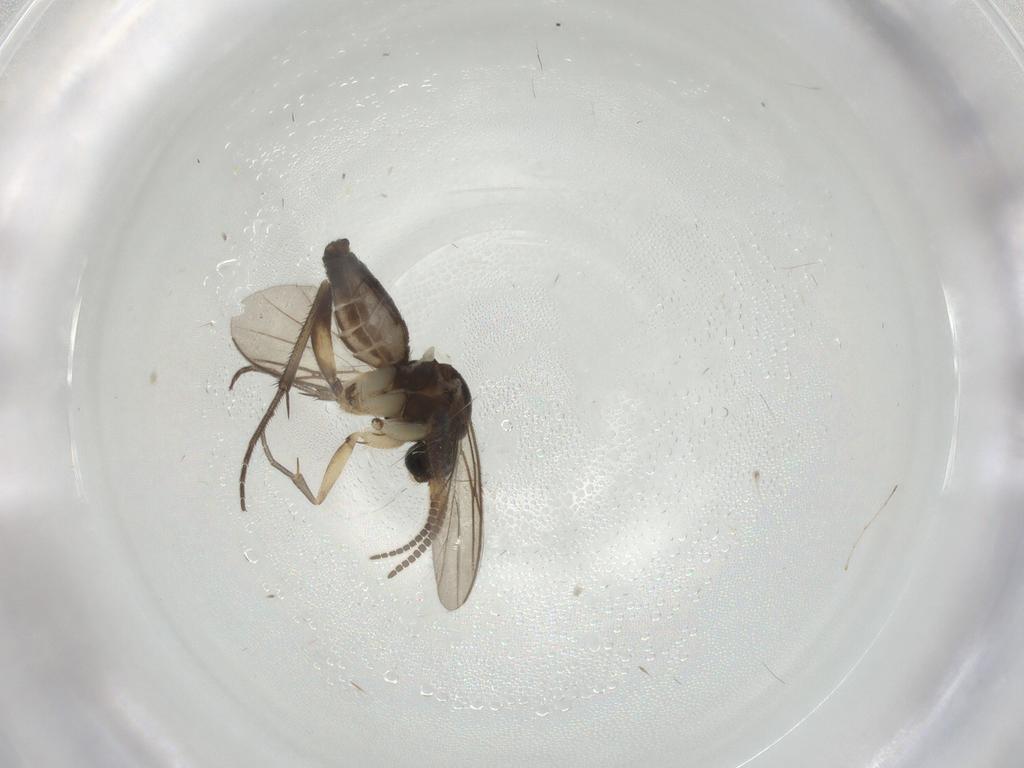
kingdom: Animalia
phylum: Arthropoda
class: Insecta
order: Diptera
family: Mycetophilidae
